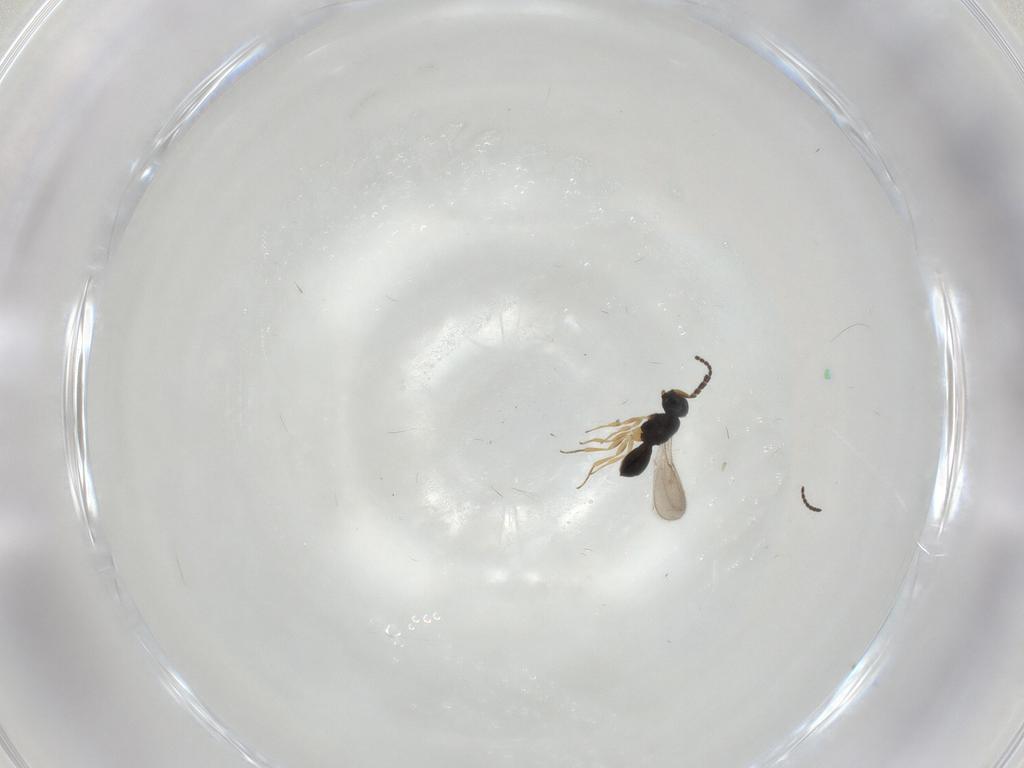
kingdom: Animalia
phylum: Arthropoda
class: Insecta
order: Hymenoptera
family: Scelionidae
